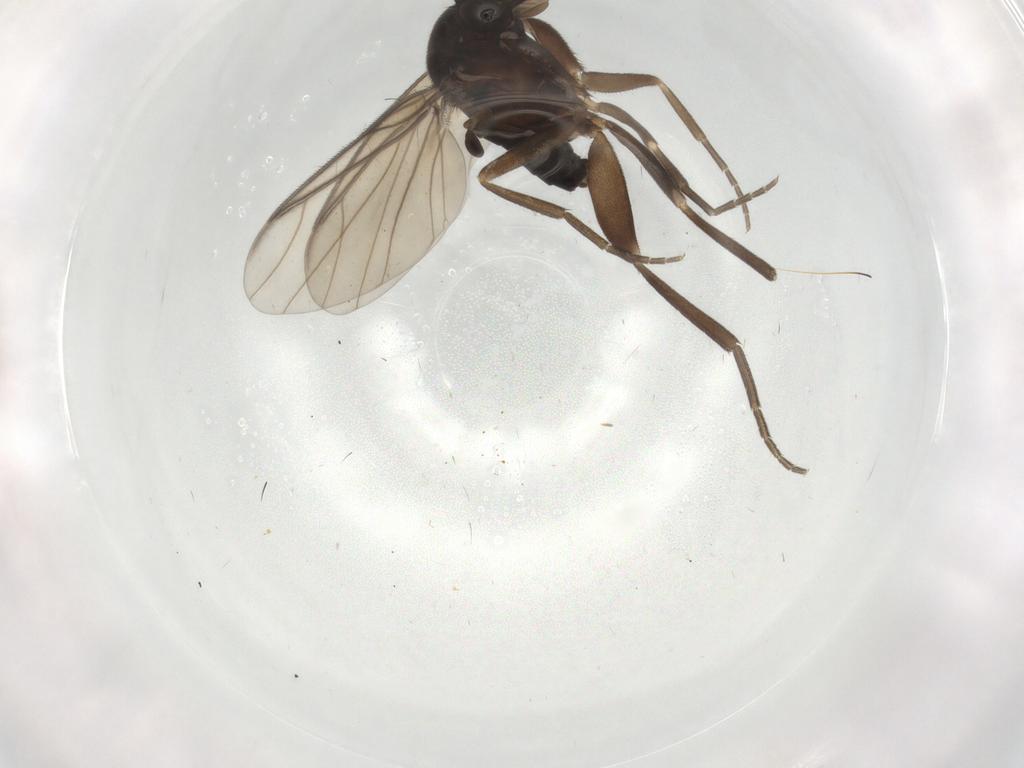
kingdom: Animalia
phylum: Arthropoda
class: Insecta
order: Diptera
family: Phoridae
